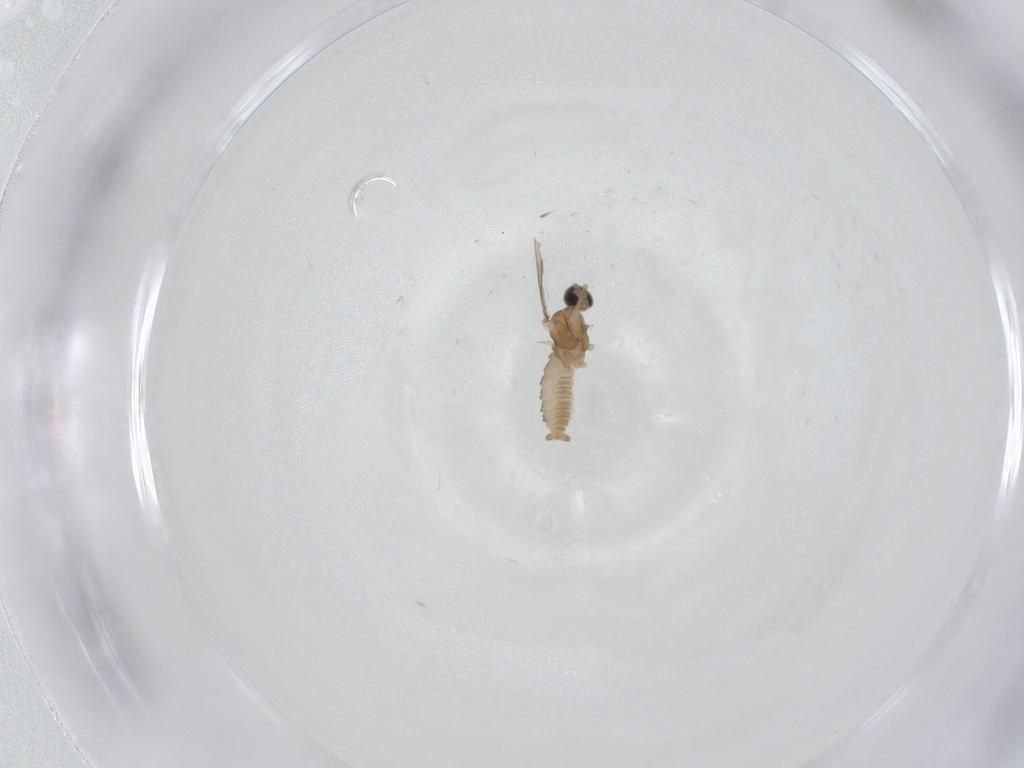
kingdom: Animalia
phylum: Arthropoda
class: Insecta
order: Diptera
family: Cecidomyiidae
